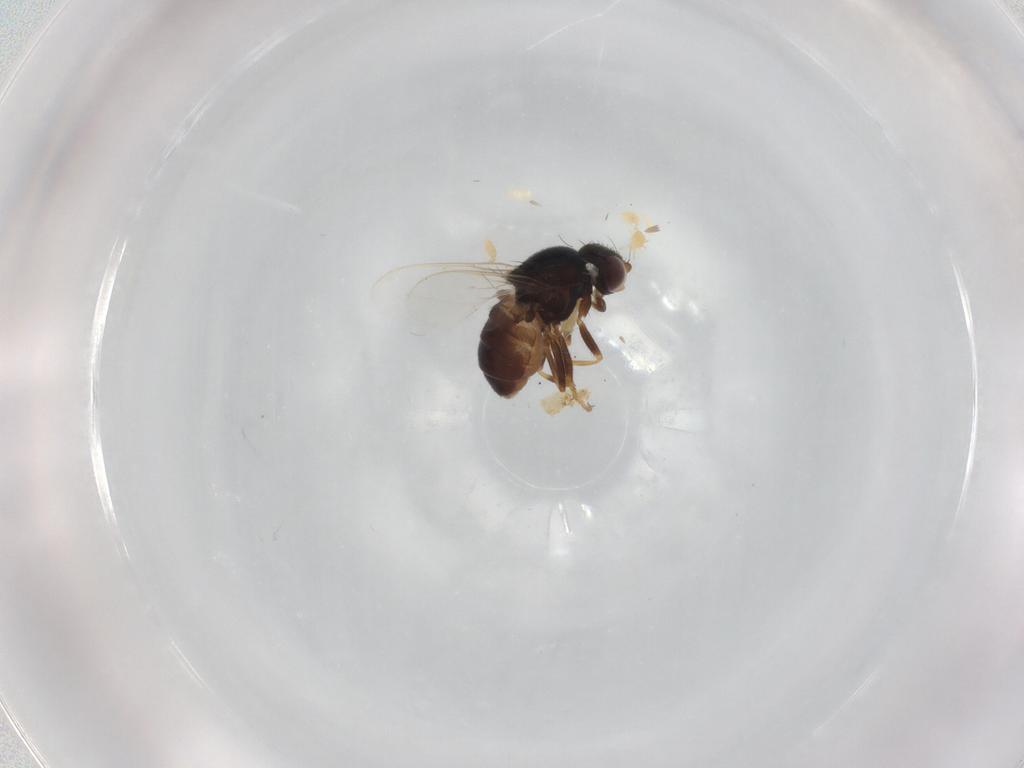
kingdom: Animalia
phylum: Arthropoda
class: Insecta
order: Diptera
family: Chloropidae
